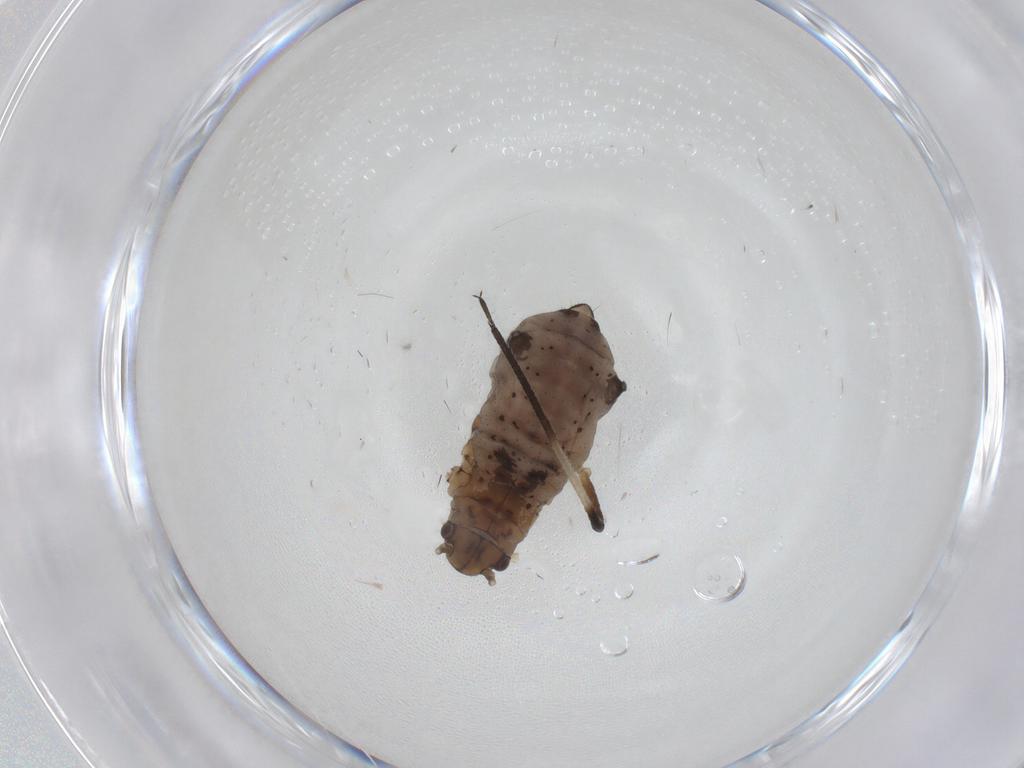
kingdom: Animalia
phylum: Arthropoda
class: Insecta
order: Hemiptera
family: Aphididae
